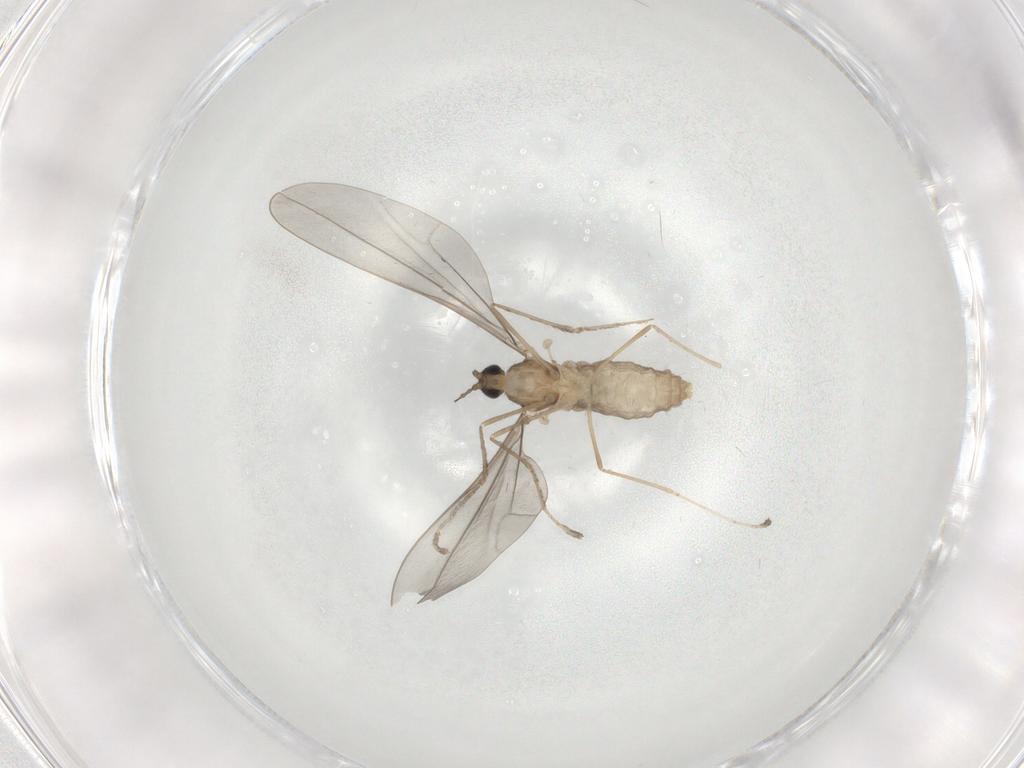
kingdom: Animalia
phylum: Arthropoda
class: Insecta
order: Diptera
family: Cecidomyiidae
